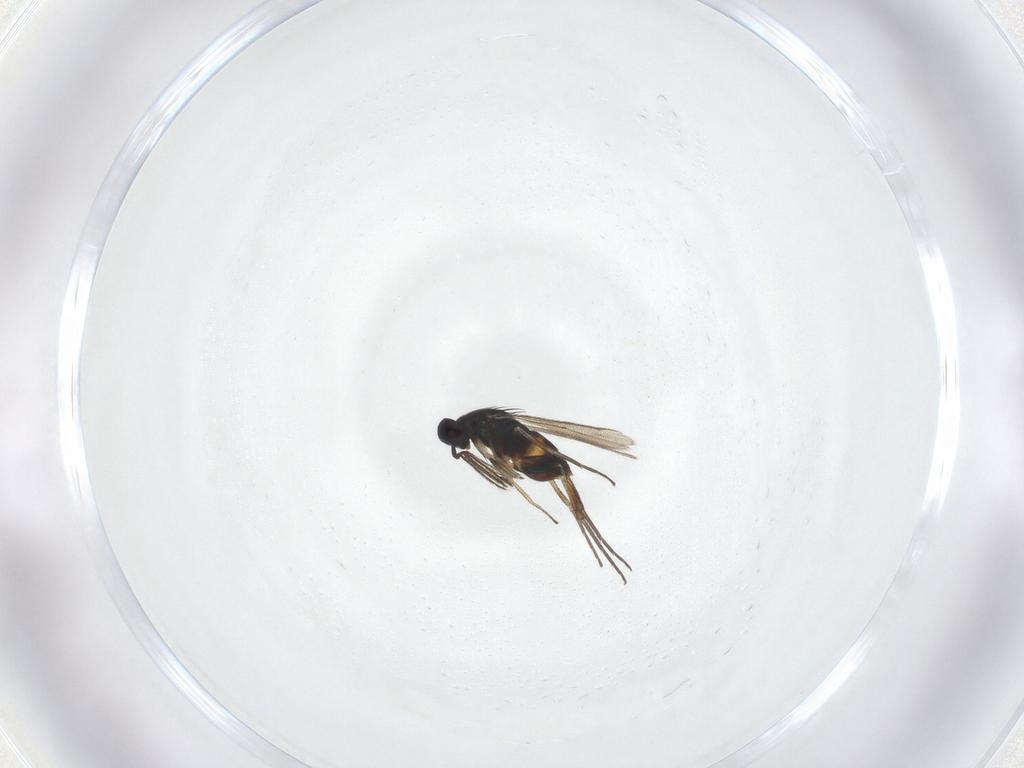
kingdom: Animalia
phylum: Arthropoda
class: Insecta
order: Hymenoptera
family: Eulophidae
